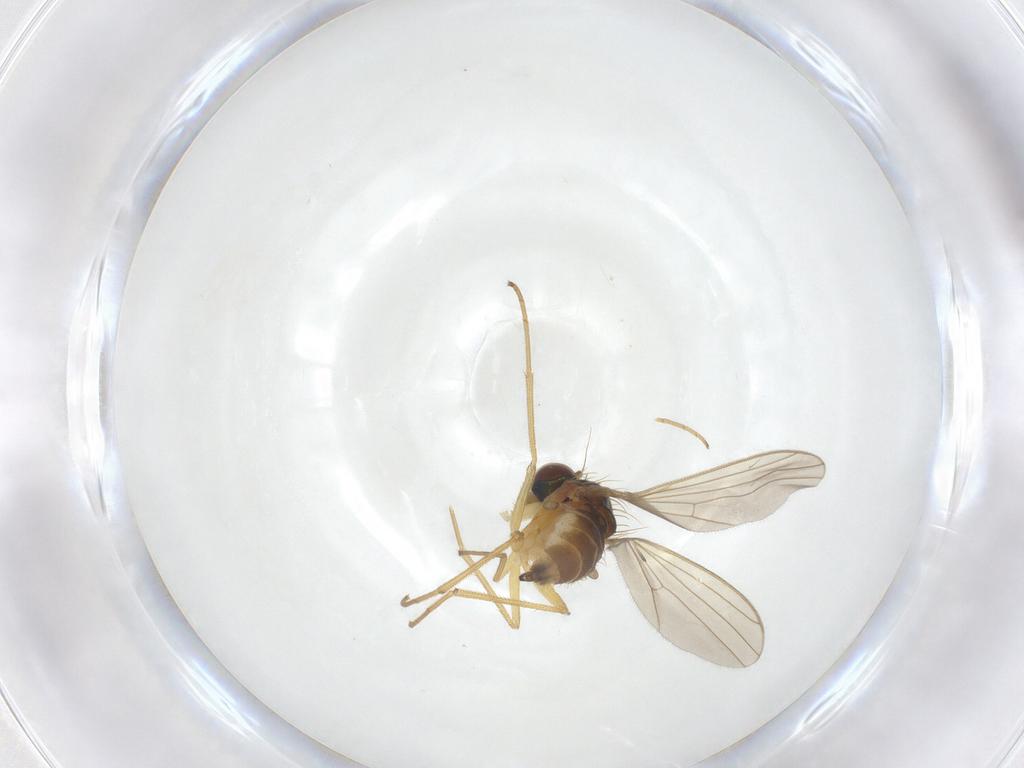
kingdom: Animalia
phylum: Arthropoda
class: Insecta
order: Diptera
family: Dolichopodidae
